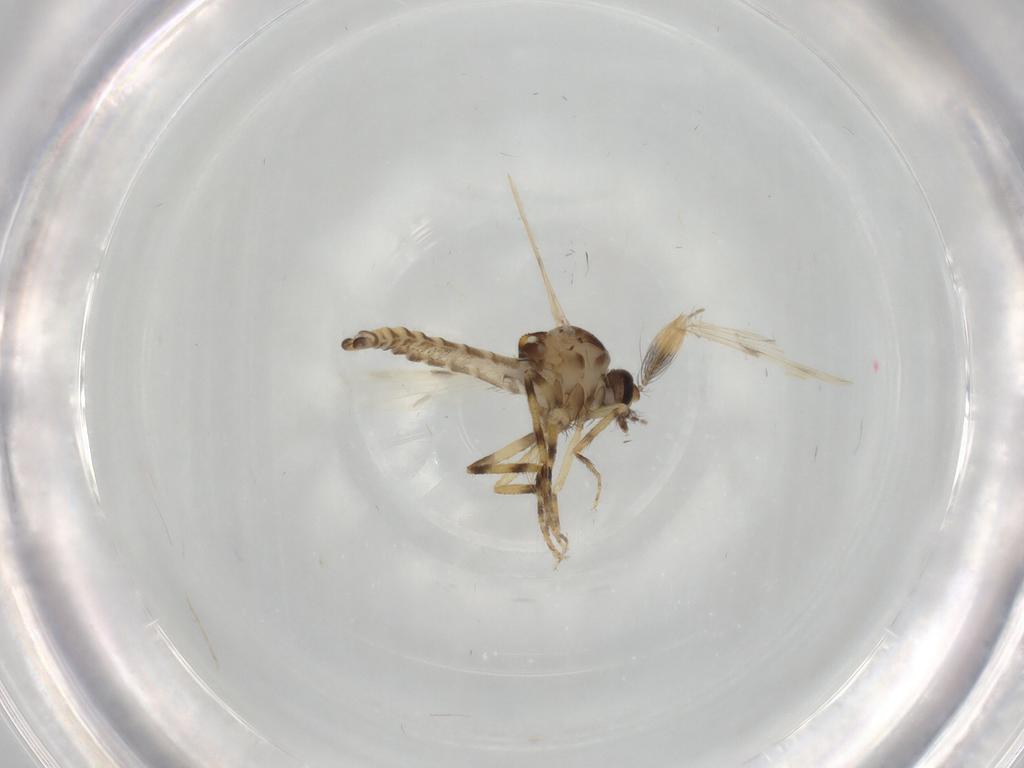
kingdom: Animalia
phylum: Arthropoda
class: Insecta
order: Diptera
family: Ceratopogonidae
